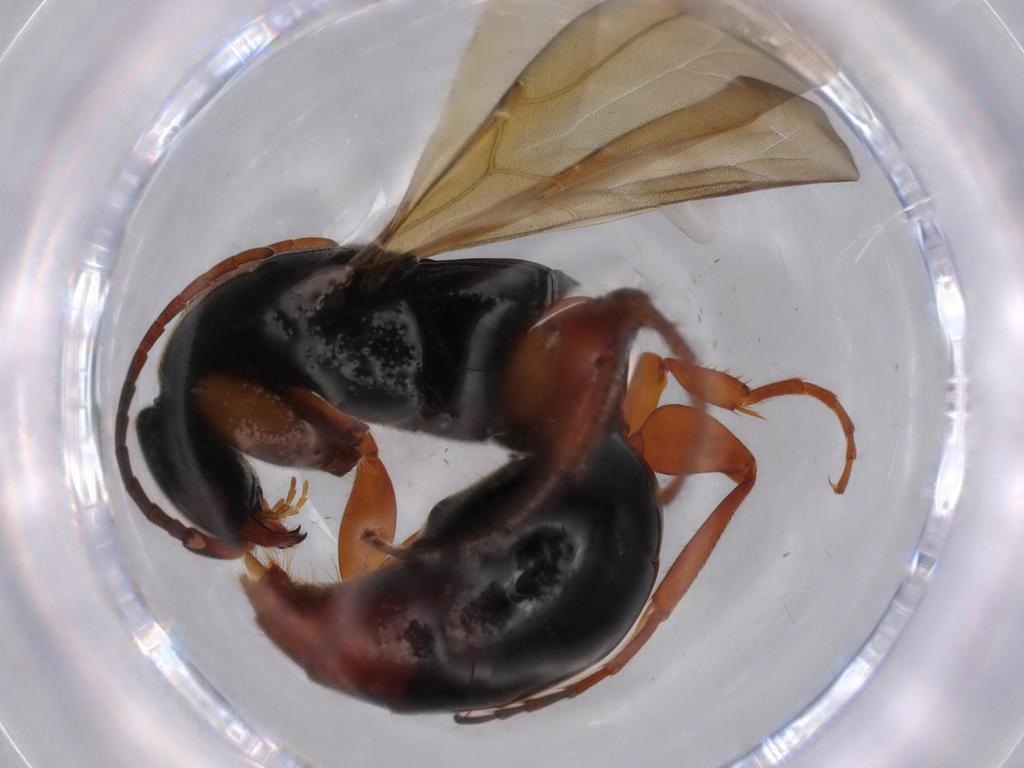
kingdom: Animalia
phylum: Arthropoda
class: Insecta
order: Hymenoptera
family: Bethylidae
